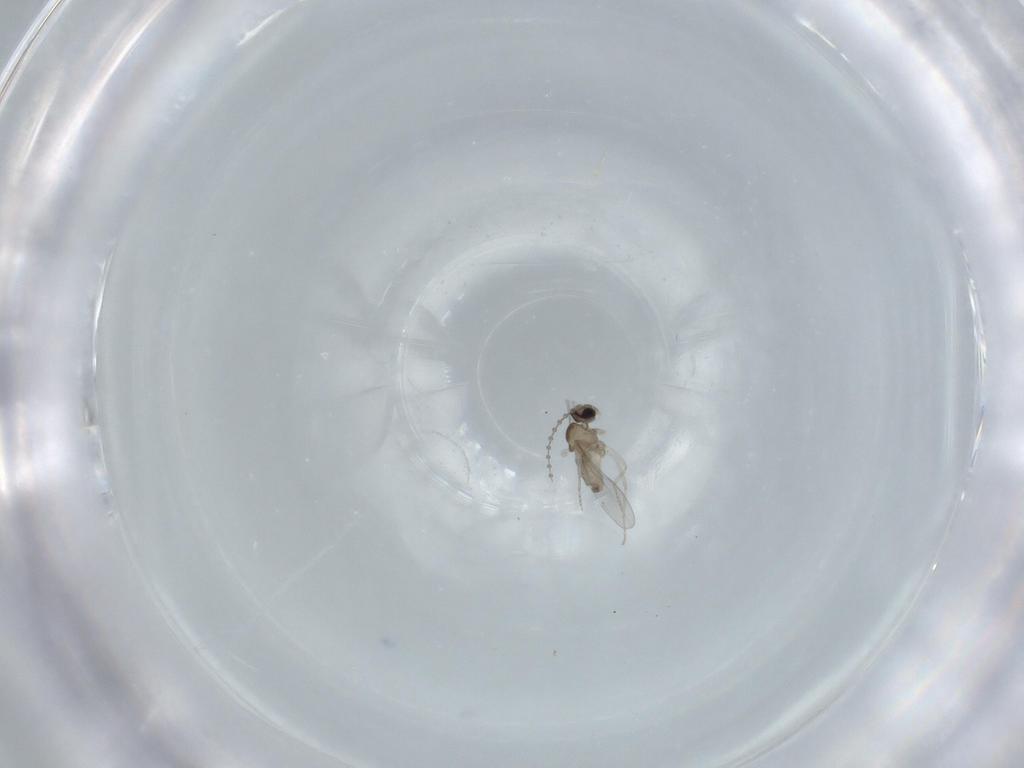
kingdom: Animalia
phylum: Arthropoda
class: Insecta
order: Diptera
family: Cecidomyiidae
